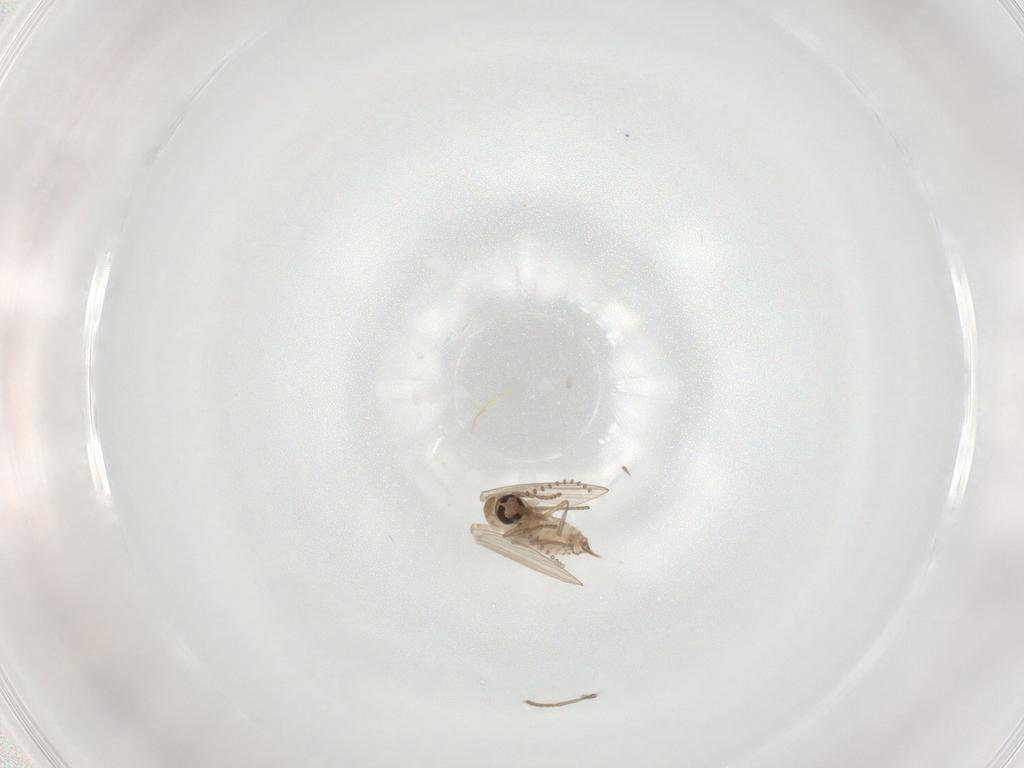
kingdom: Animalia
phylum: Arthropoda
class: Insecta
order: Diptera
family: Psychodidae
